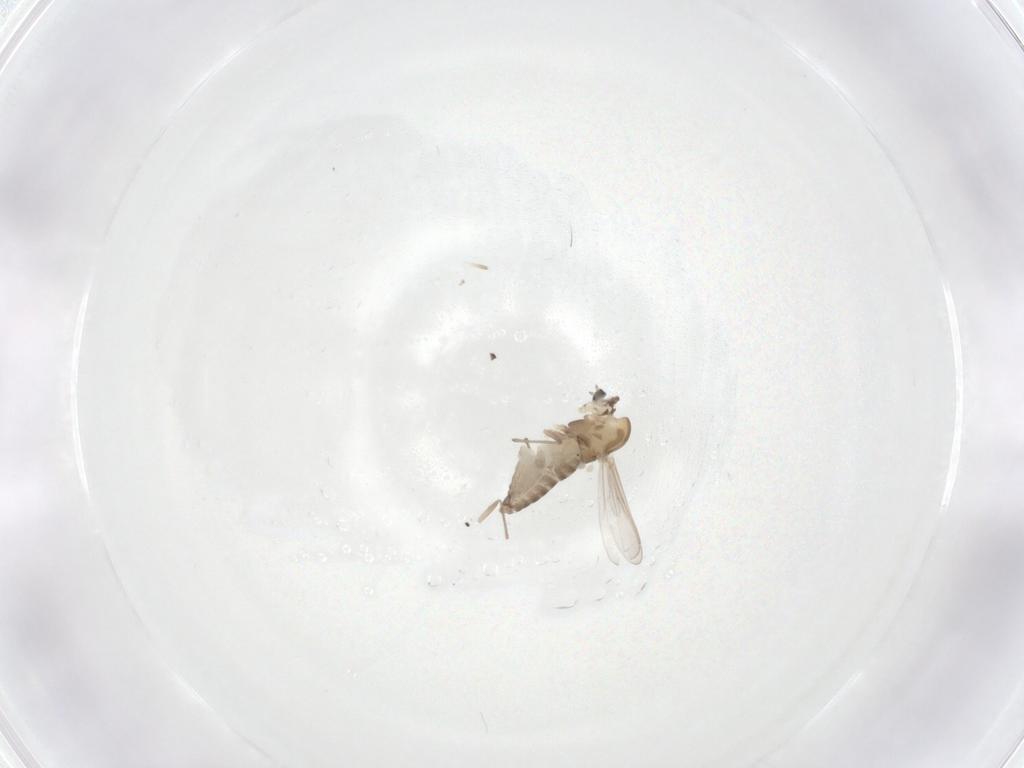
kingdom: Animalia
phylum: Arthropoda
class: Insecta
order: Diptera
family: Chironomidae
